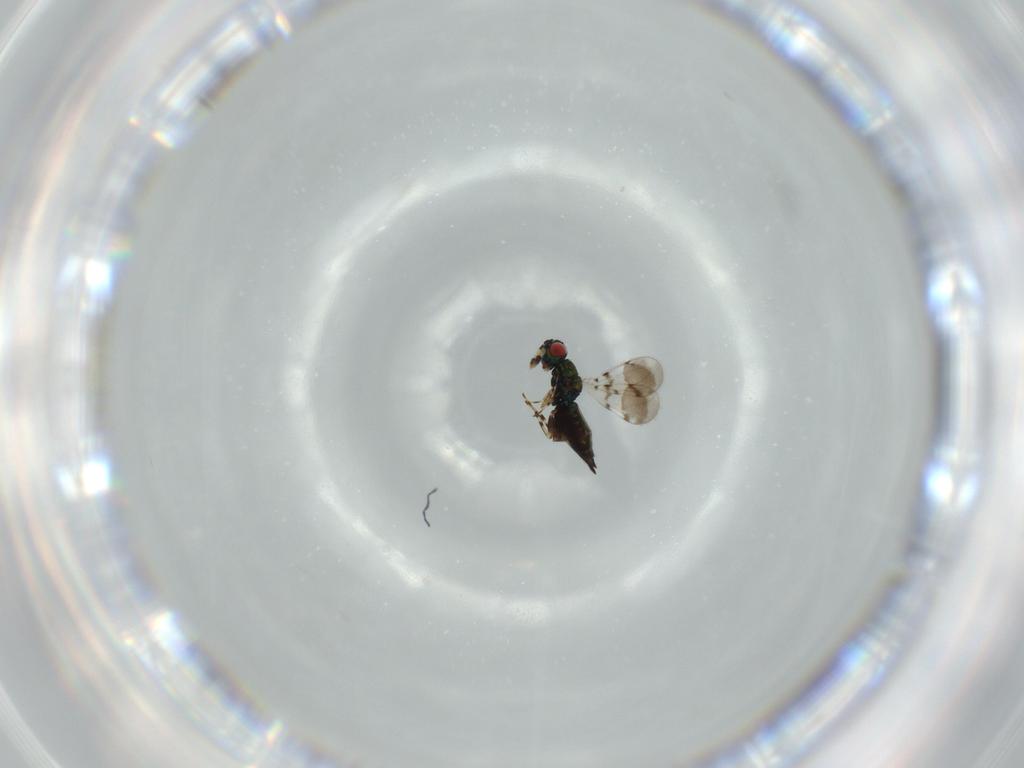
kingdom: Animalia
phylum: Arthropoda
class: Insecta
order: Hymenoptera
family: Eulophidae
